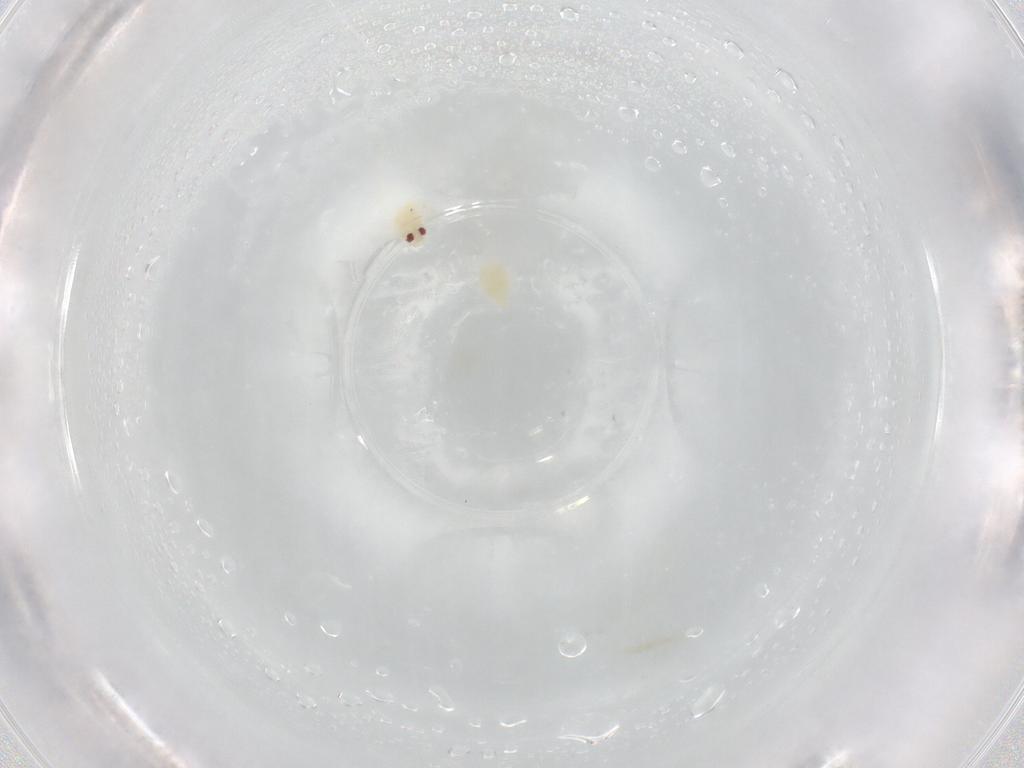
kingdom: Animalia
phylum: Arthropoda
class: Insecta
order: Hemiptera
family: Aleyrodidae
